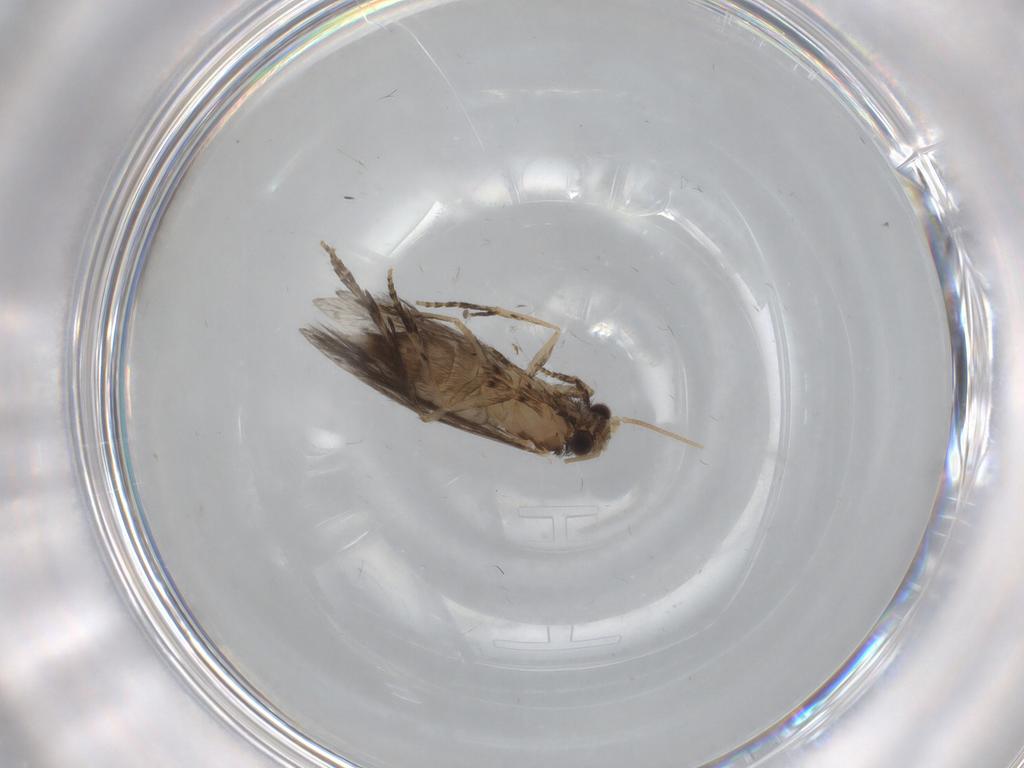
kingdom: Animalia
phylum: Arthropoda
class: Insecta
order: Trichoptera
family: Hydroptilidae
